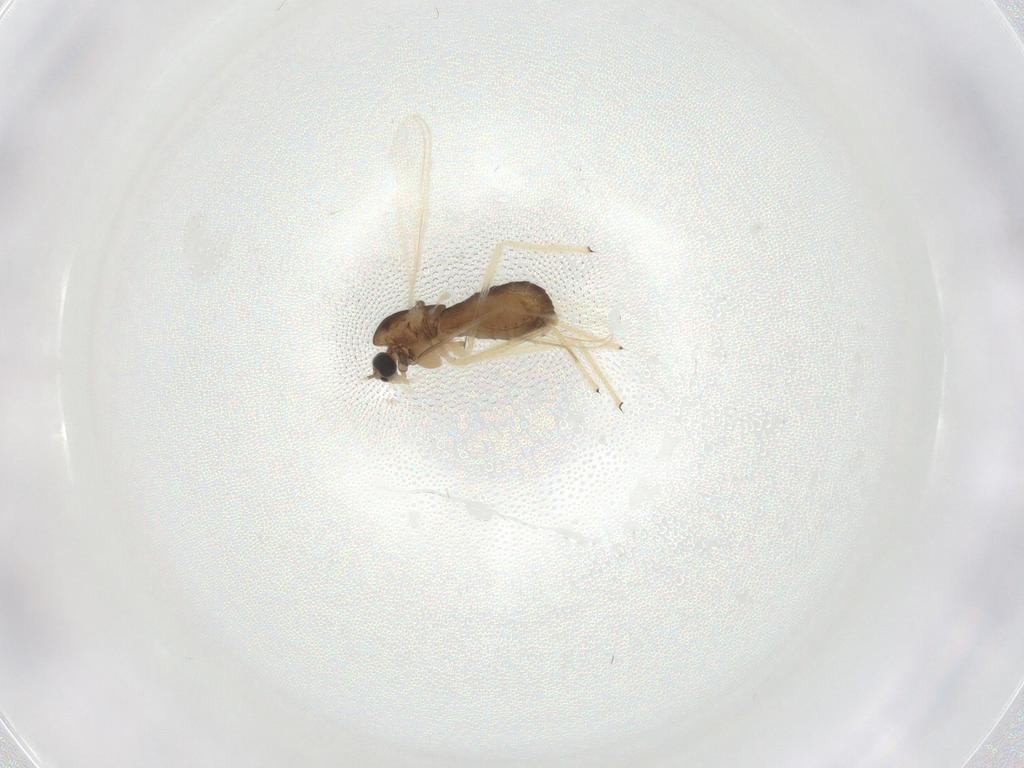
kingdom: Animalia
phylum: Arthropoda
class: Insecta
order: Diptera
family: Chironomidae
